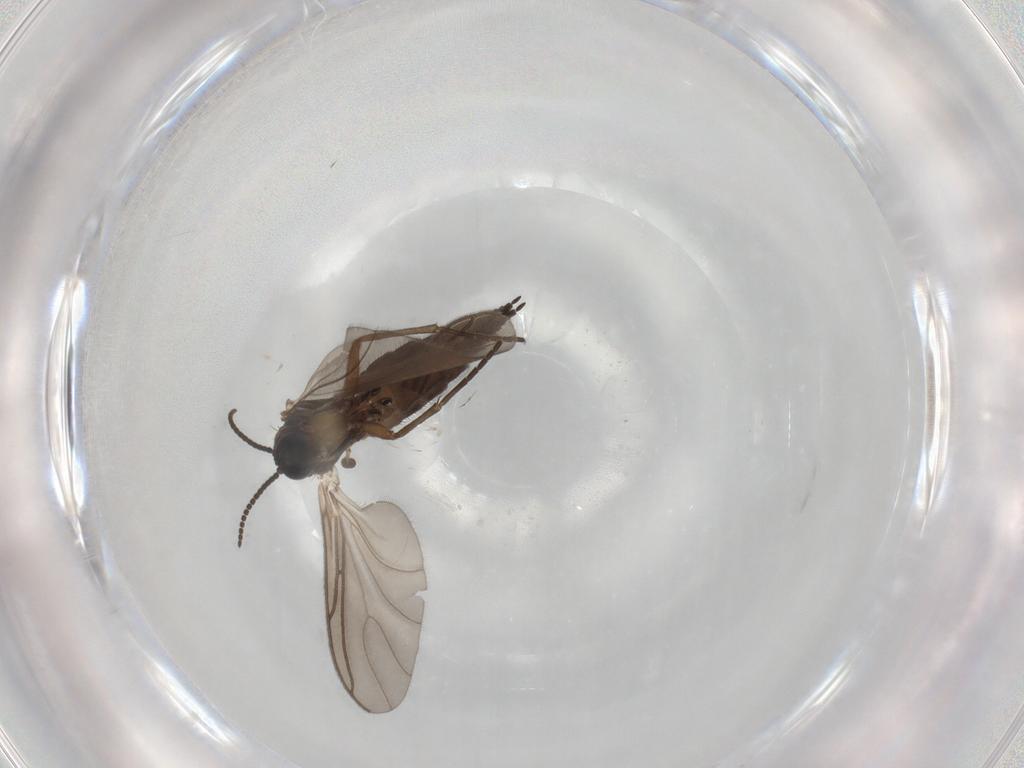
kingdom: Animalia
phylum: Arthropoda
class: Insecta
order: Diptera
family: Sciaridae
